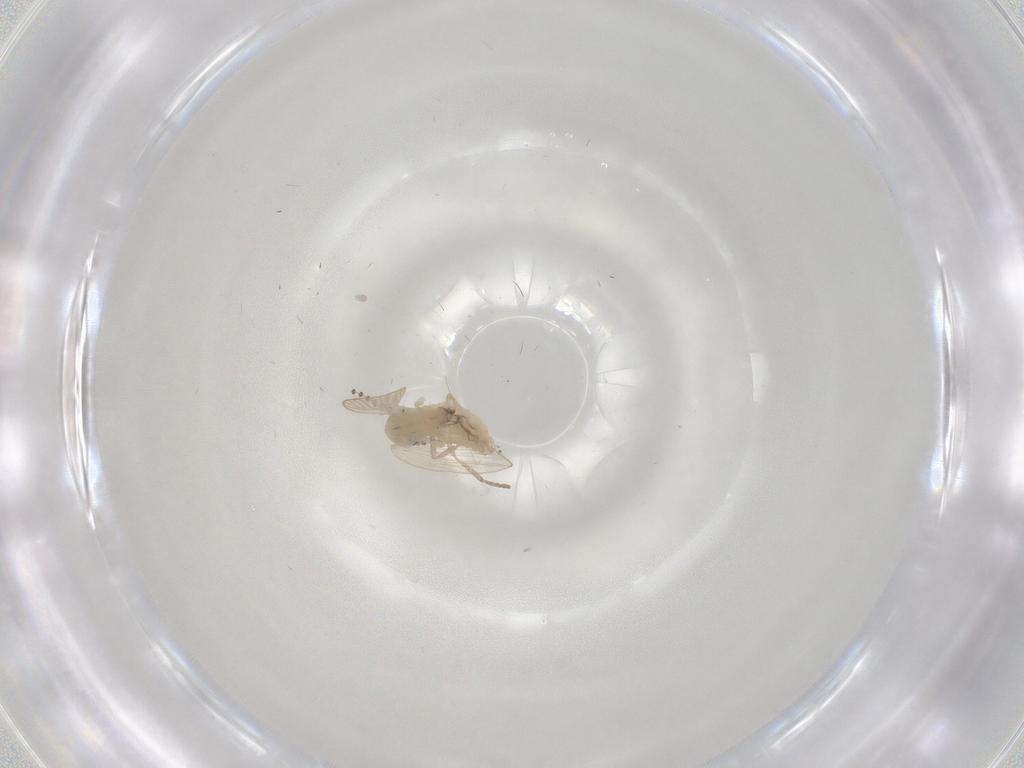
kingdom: Animalia
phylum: Arthropoda
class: Insecta
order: Diptera
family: Psychodidae
